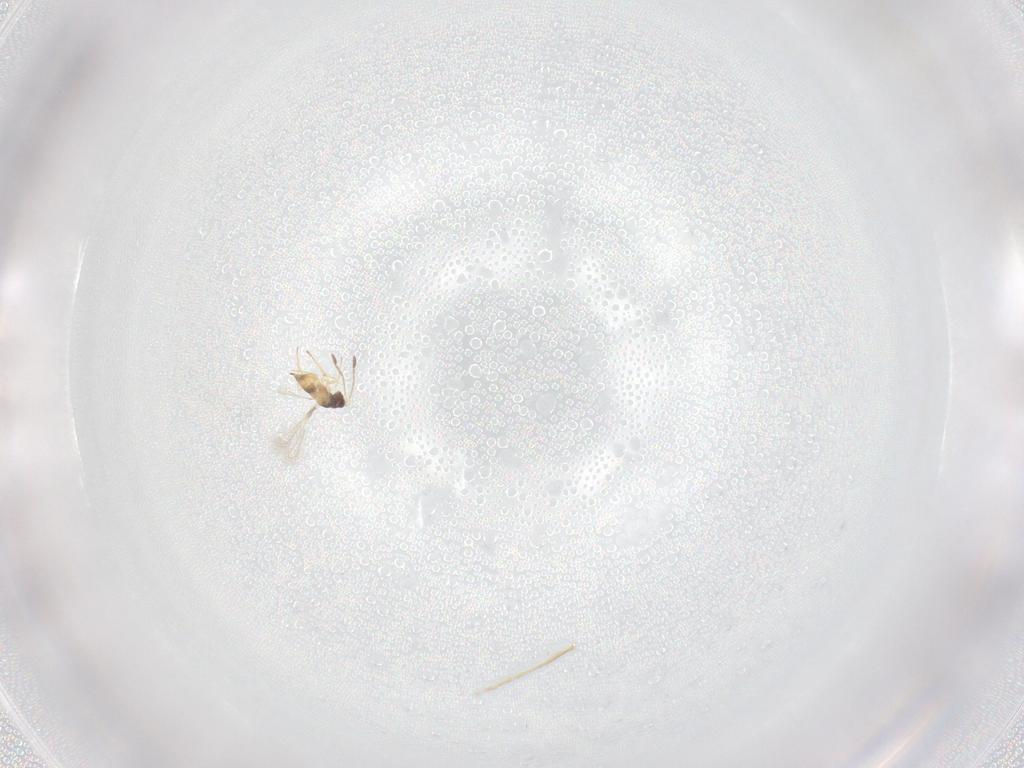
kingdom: Animalia
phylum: Arthropoda
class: Insecta
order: Hymenoptera
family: Mymaridae
